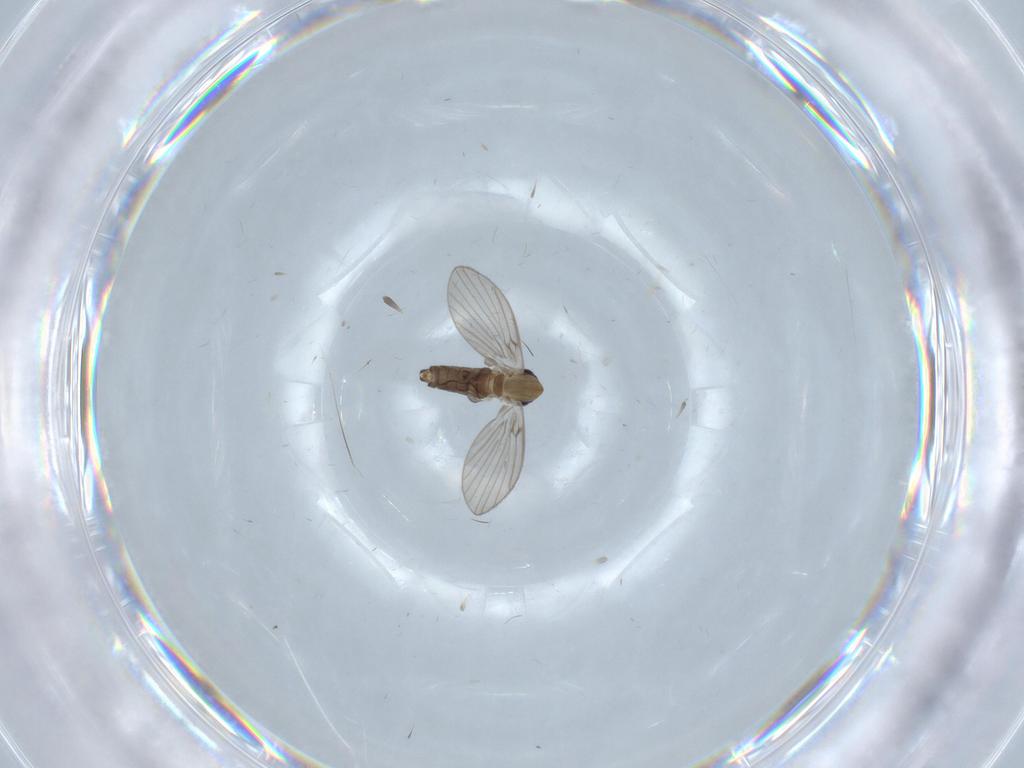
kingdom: Animalia
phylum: Arthropoda
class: Insecta
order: Diptera
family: Psychodidae
